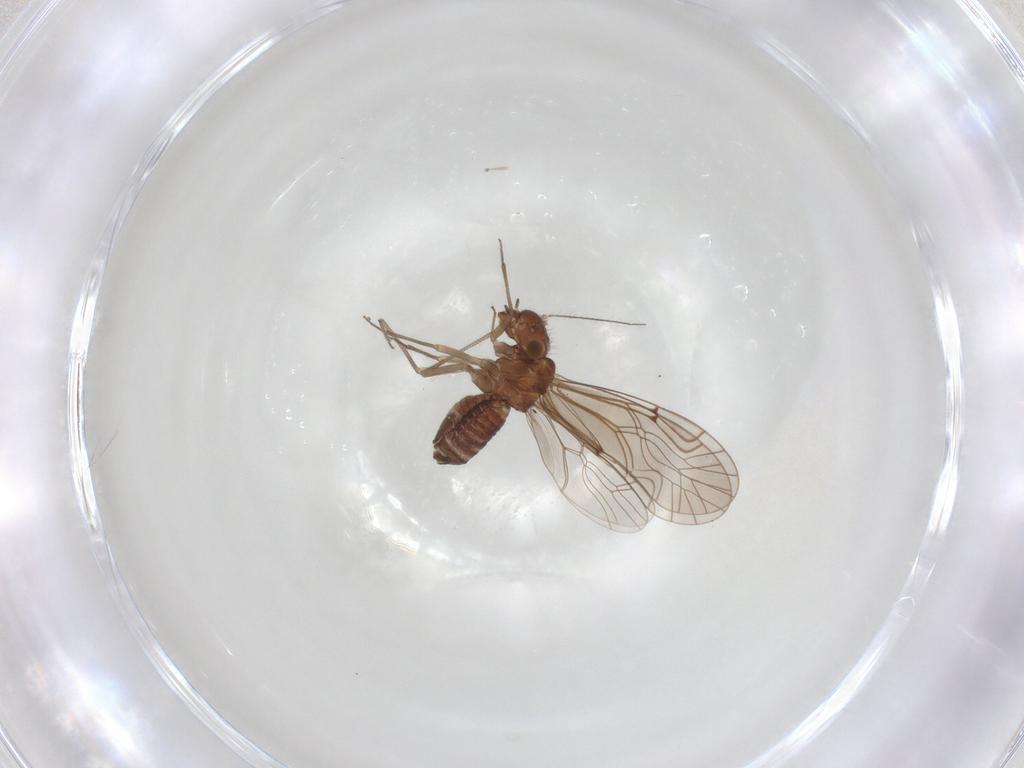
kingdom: Animalia
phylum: Arthropoda
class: Insecta
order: Psocodea
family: Lachesillidae
